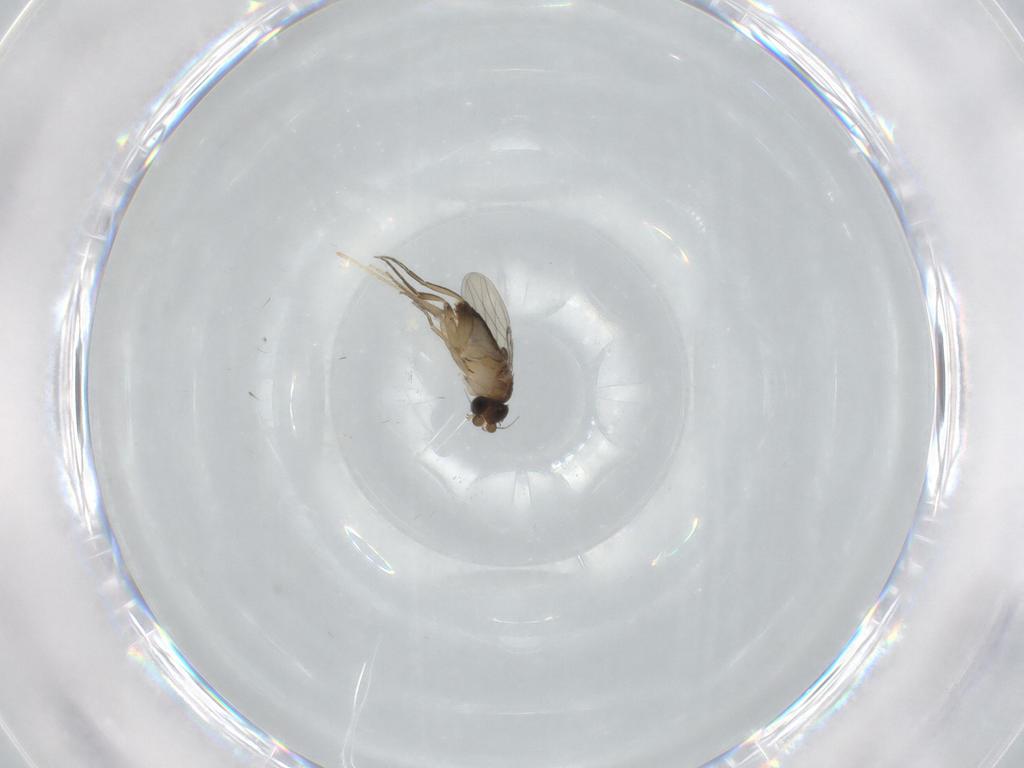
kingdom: Animalia
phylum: Arthropoda
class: Insecta
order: Diptera
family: Chironomidae
